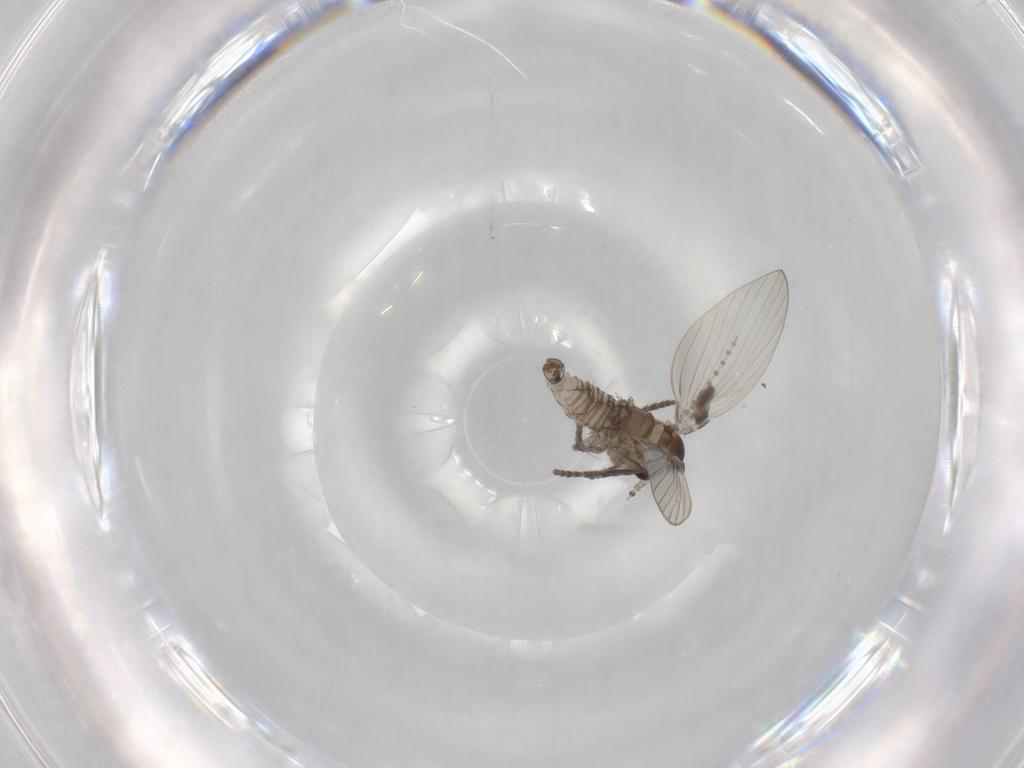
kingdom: Animalia
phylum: Arthropoda
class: Insecta
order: Diptera
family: Psychodidae
